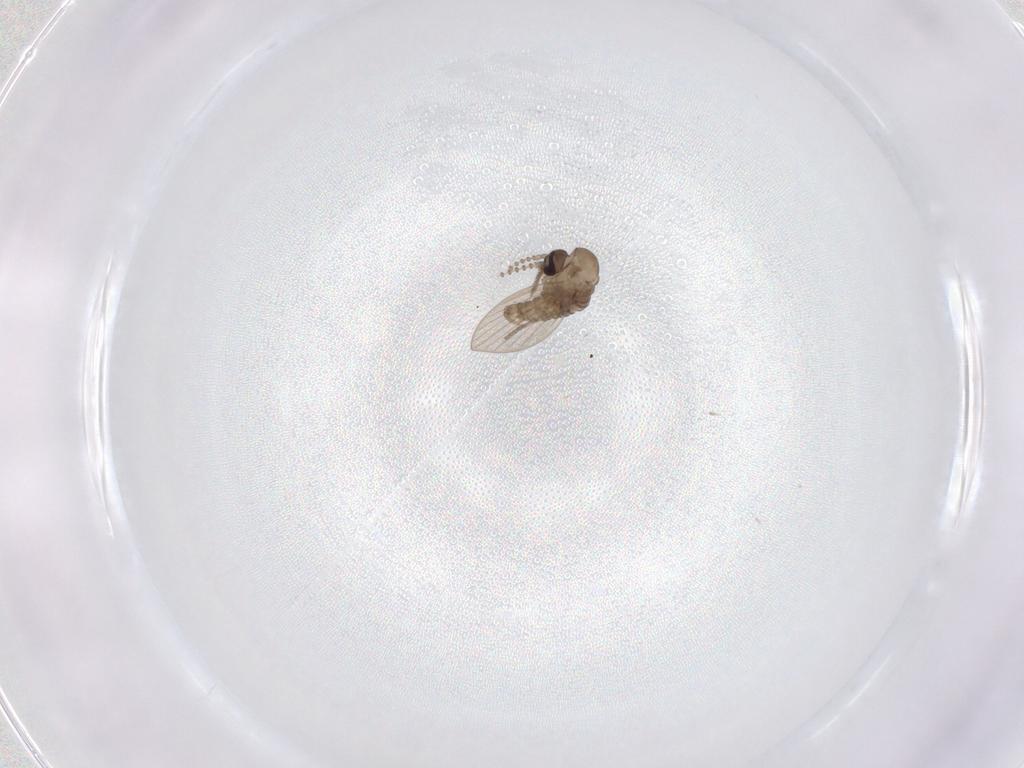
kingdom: Animalia
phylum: Arthropoda
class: Insecta
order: Diptera
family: Psychodidae
